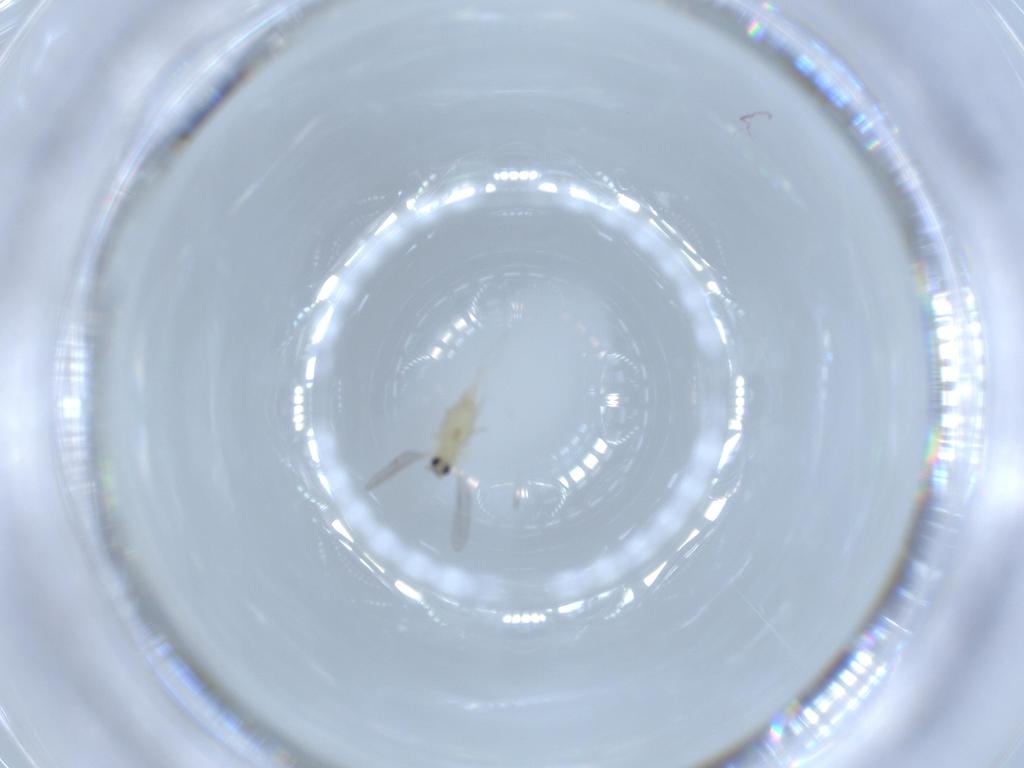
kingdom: Animalia
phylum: Arthropoda
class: Insecta
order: Diptera
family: Cecidomyiidae
